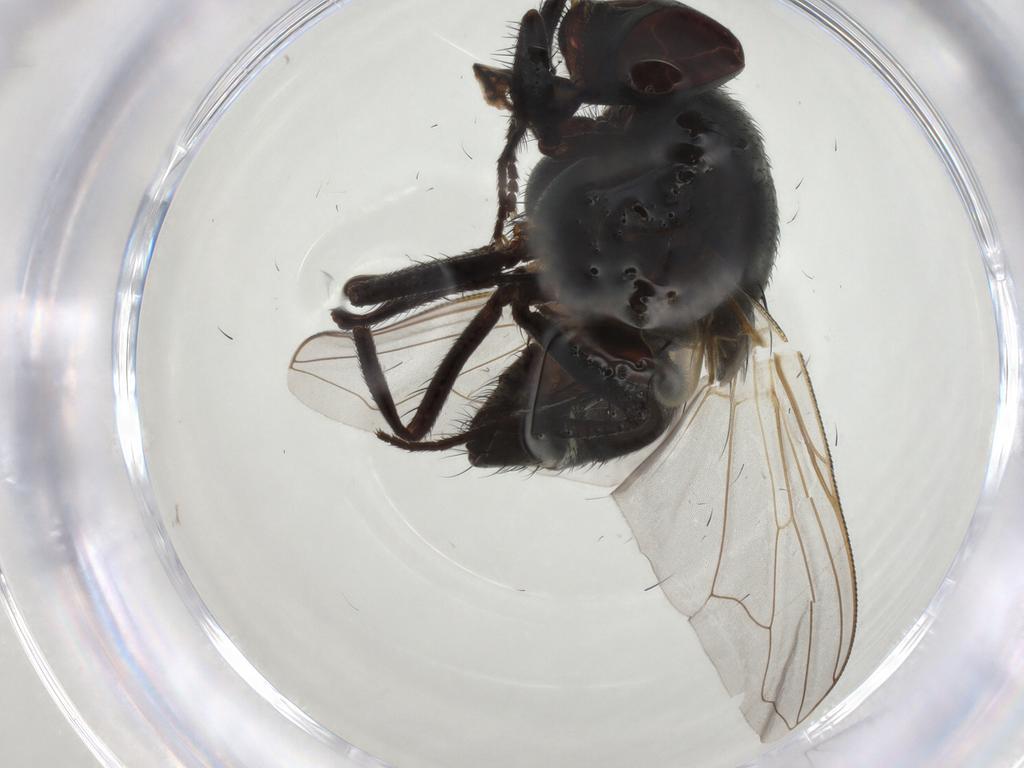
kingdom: Animalia
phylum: Arthropoda
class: Insecta
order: Diptera
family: Muscidae
